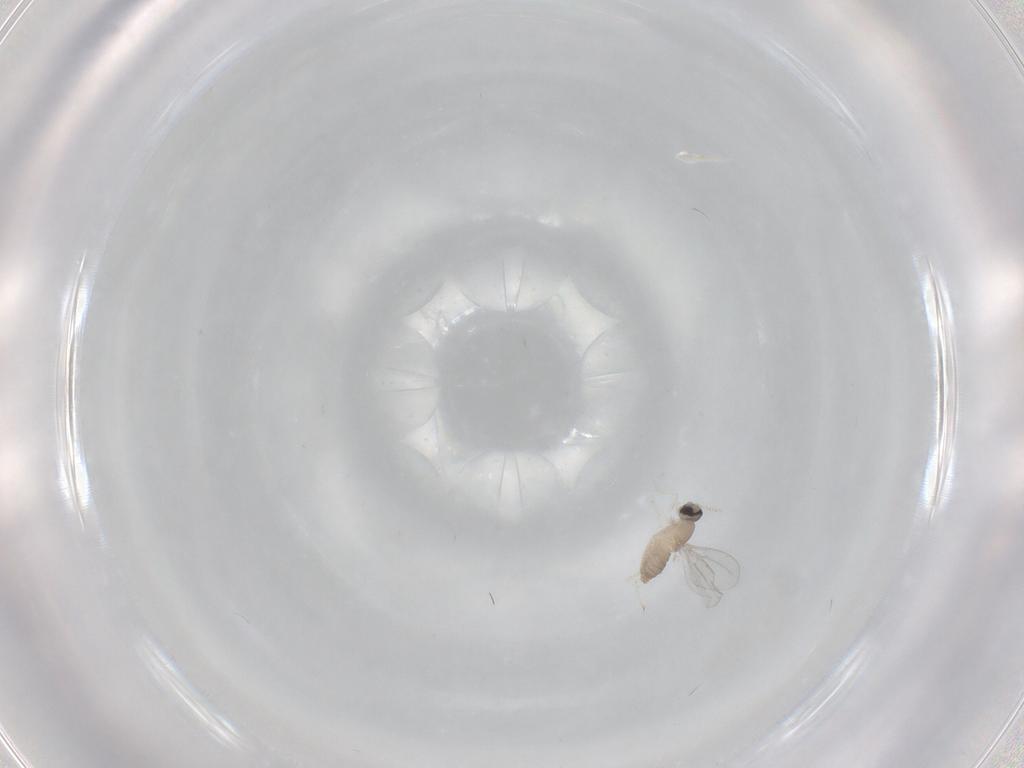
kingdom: Animalia
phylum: Arthropoda
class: Insecta
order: Diptera
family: Cecidomyiidae
